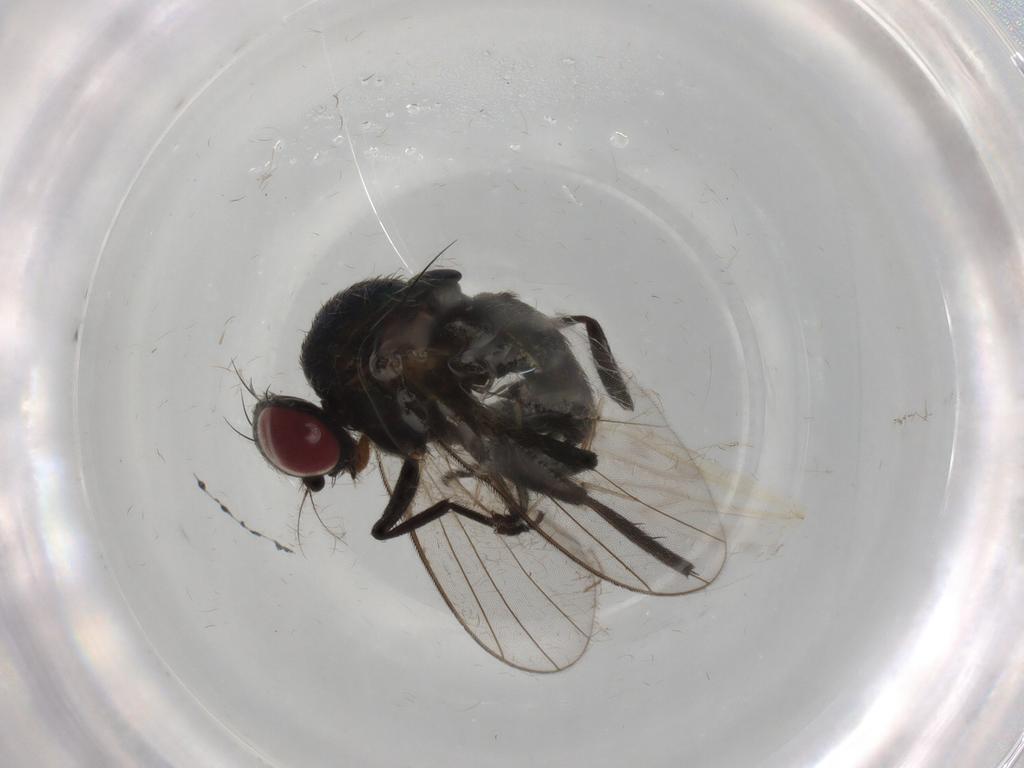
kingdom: Animalia
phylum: Arthropoda
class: Insecta
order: Diptera
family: Agromyzidae
